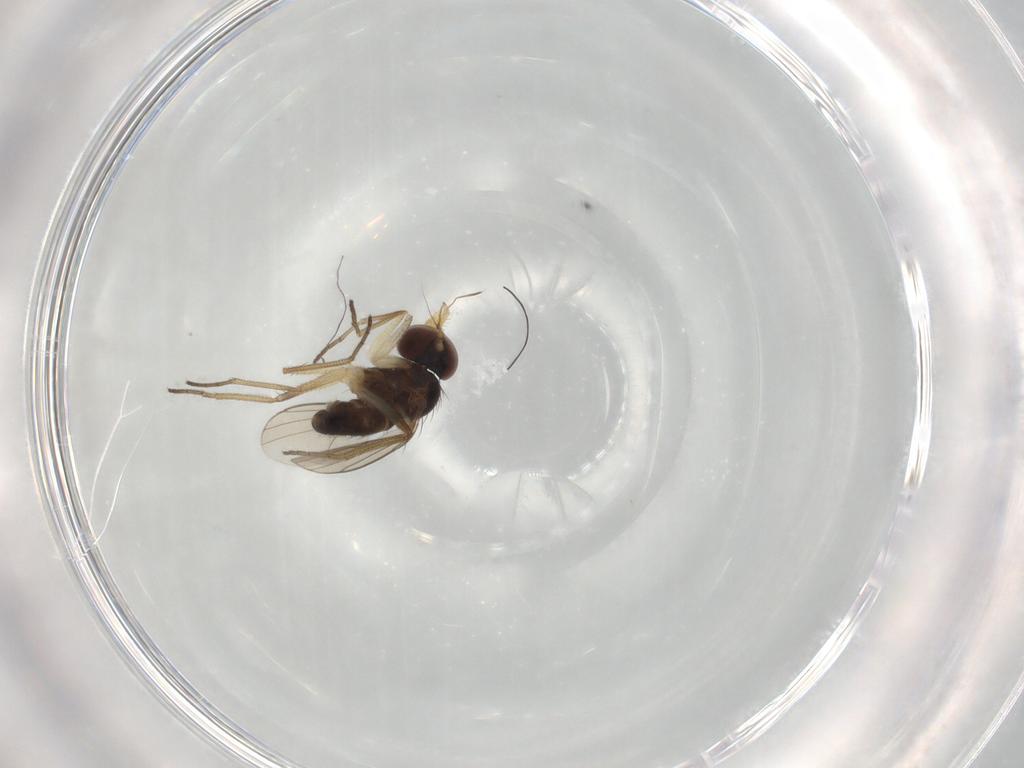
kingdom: Animalia
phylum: Arthropoda
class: Insecta
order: Diptera
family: Dolichopodidae
